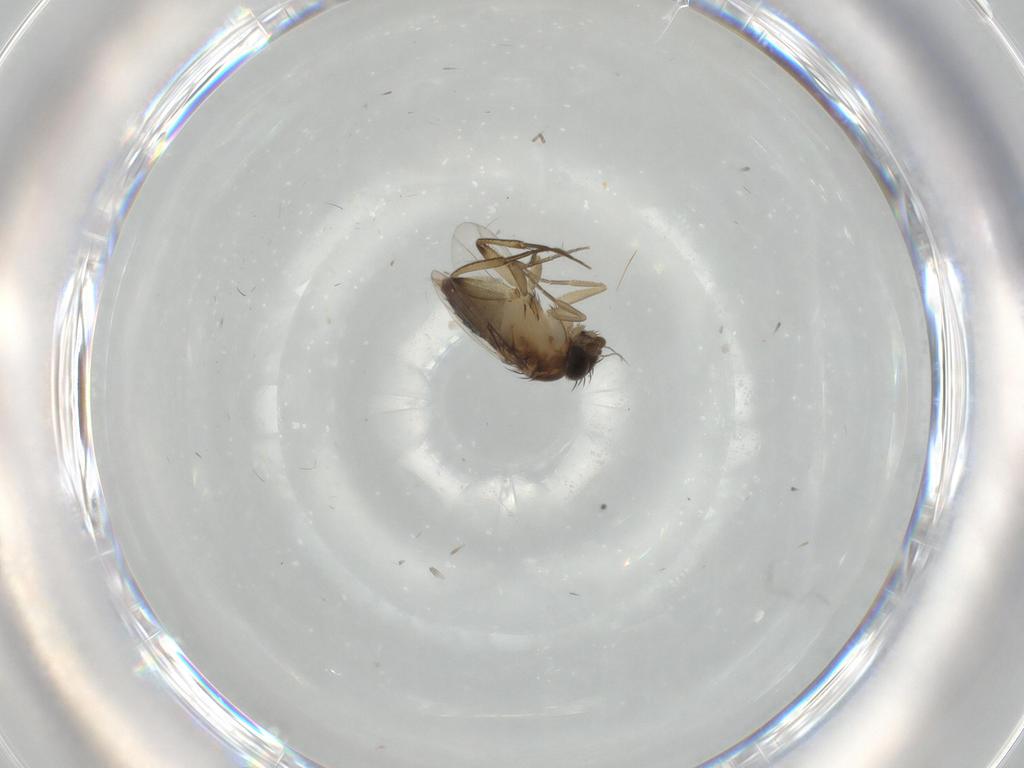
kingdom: Animalia
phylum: Arthropoda
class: Insecta
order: Diptera
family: Phoridae
